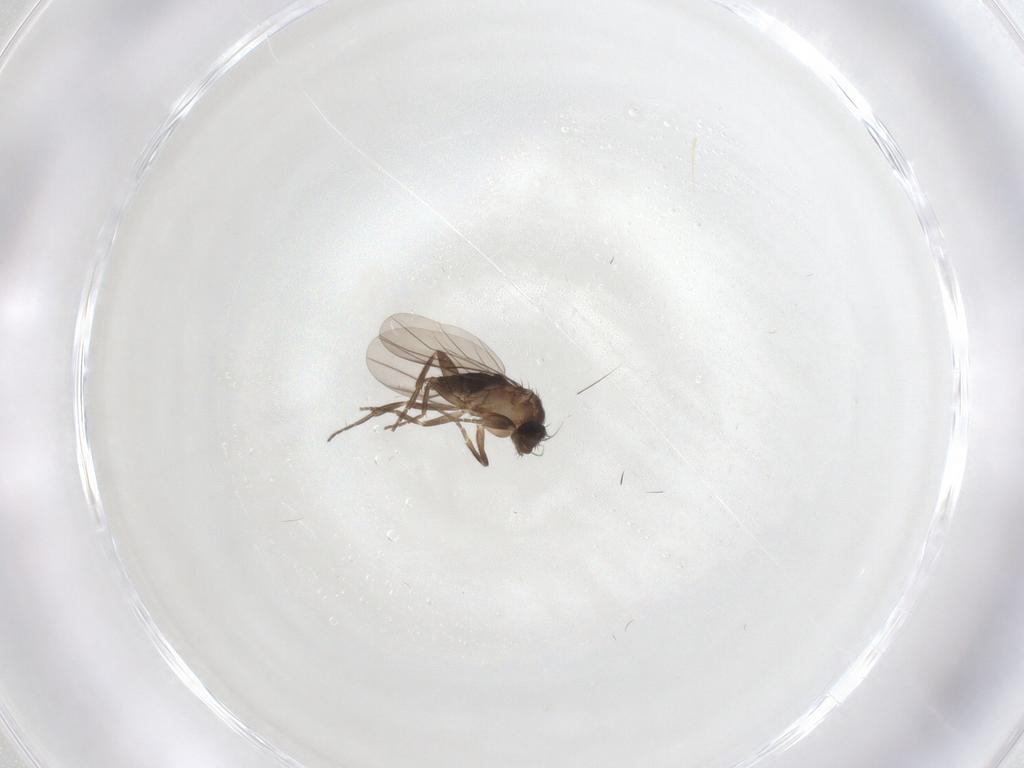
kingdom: Animalia
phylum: Arthropoda
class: Insecta
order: Diptera
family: Phoridae
